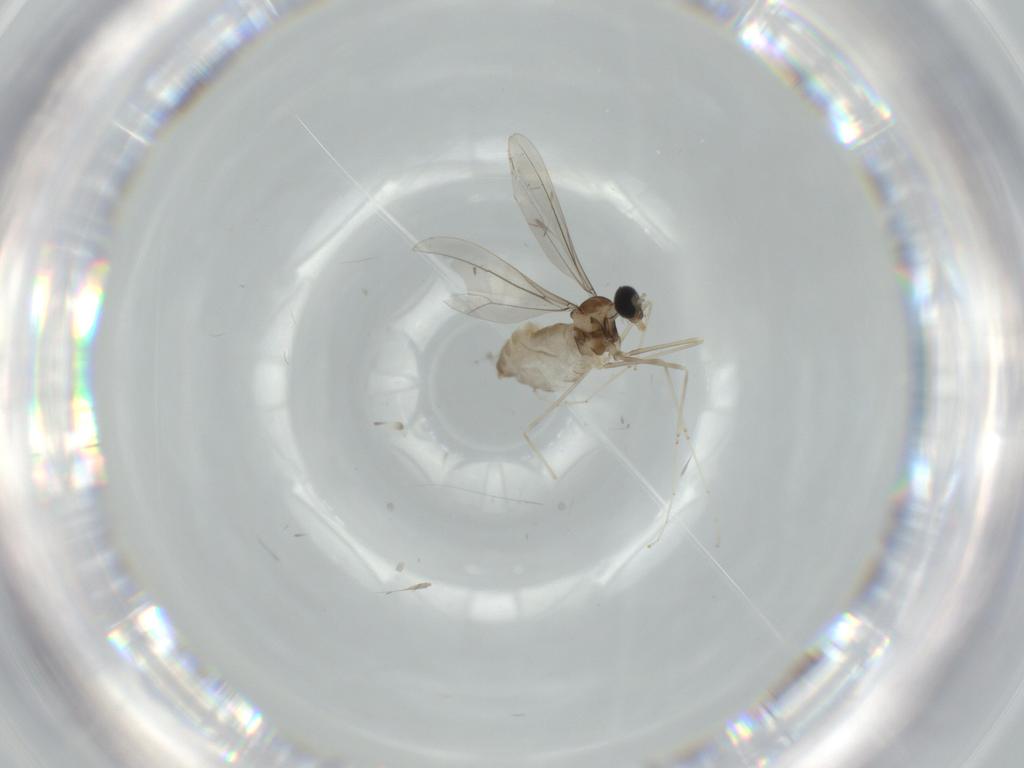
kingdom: Animalia
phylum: Arthropoda
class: Insecta
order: Diptera
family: Cecidomyiidae
